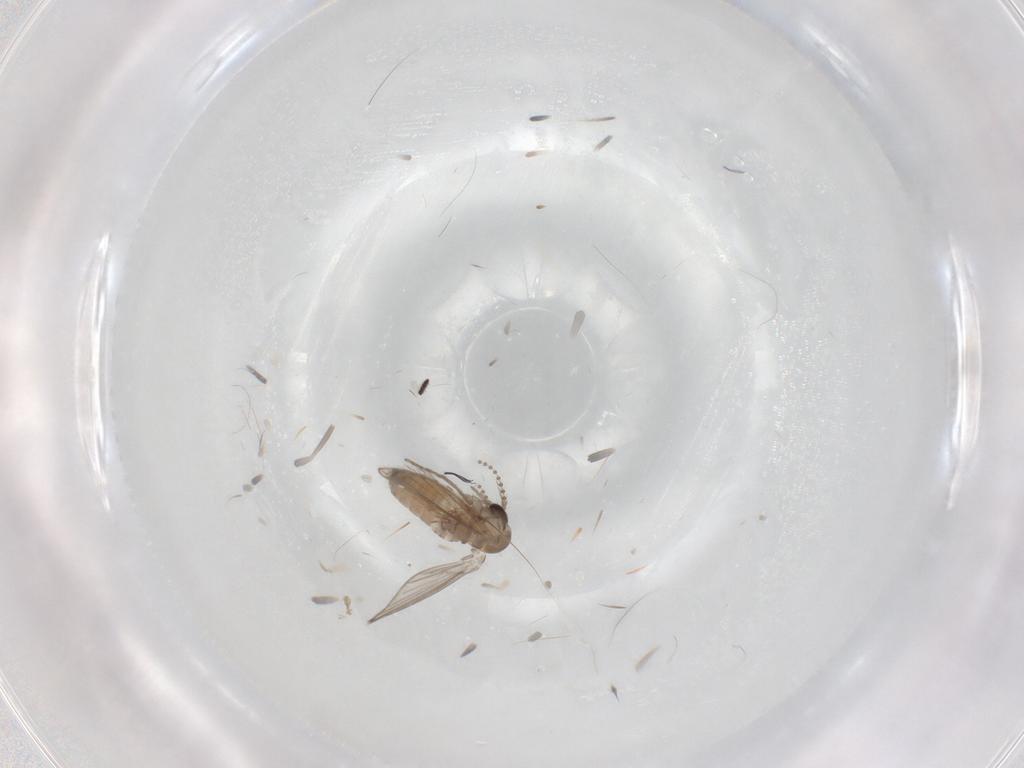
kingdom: Animalia
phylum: Arthropoda
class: Insecta
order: Diptera
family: Psychodidae
